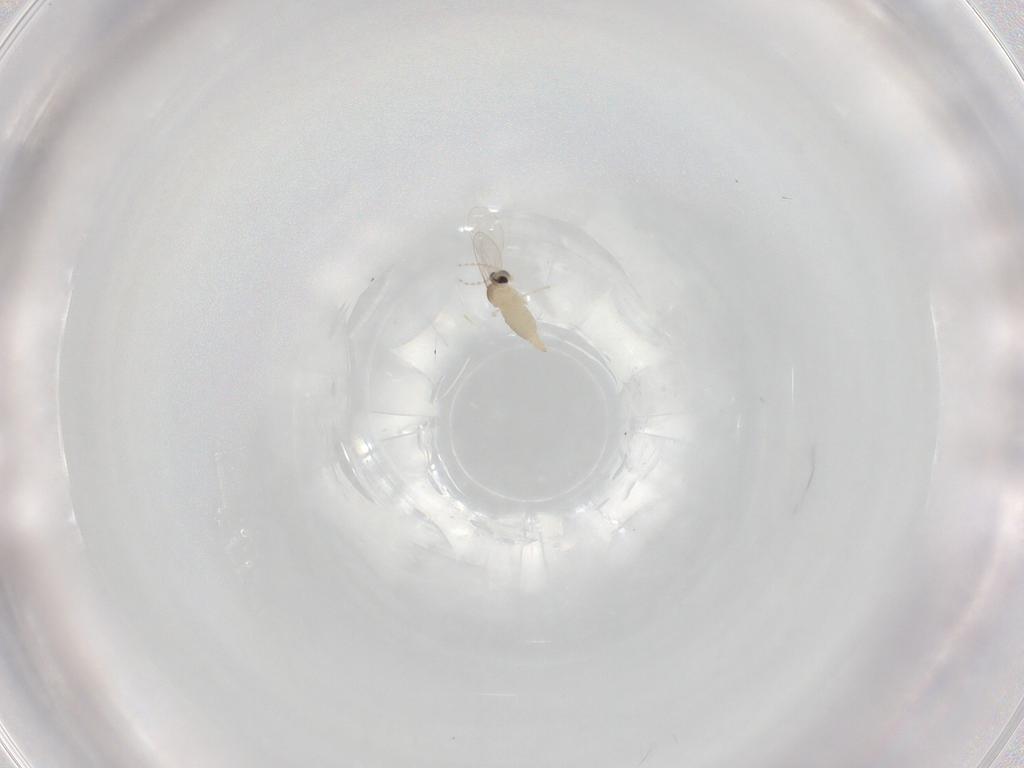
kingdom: Animalia
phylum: Arthropoda
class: Insecta
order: Diptera
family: Cecidomyiidae
